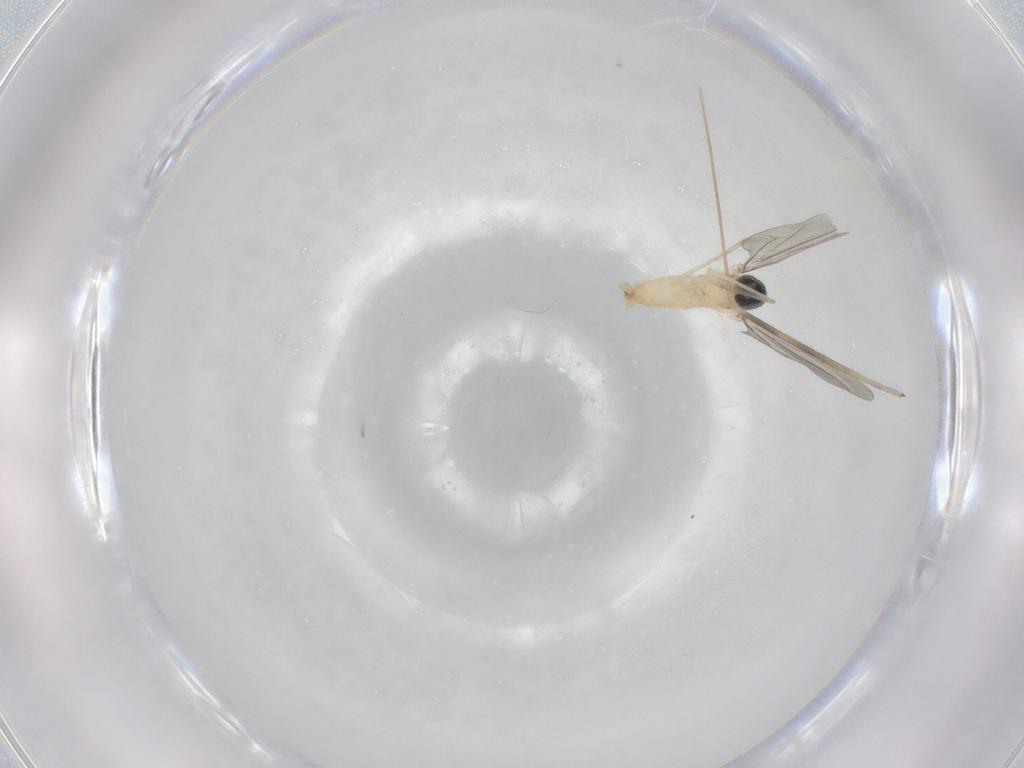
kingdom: Animalia
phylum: Arthropoda
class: Insecta
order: Diptera
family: Cecidomyiidae
